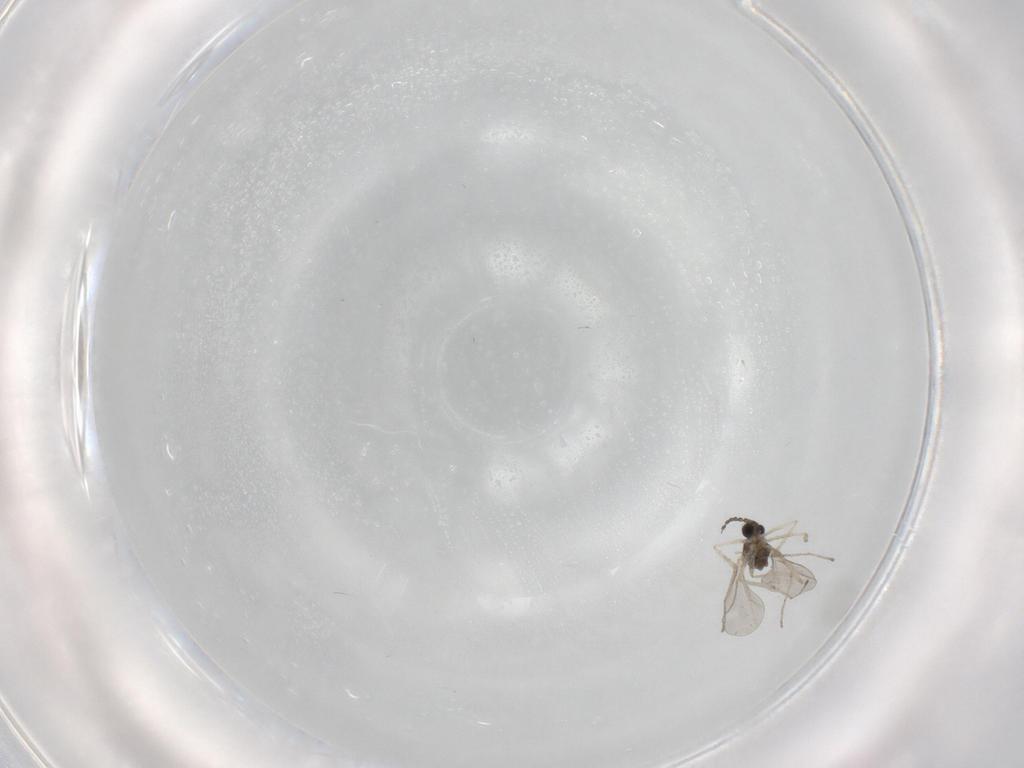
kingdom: Animalia
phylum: Arthropoda
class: Insecta
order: Diptera
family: Cecidomyiidae
